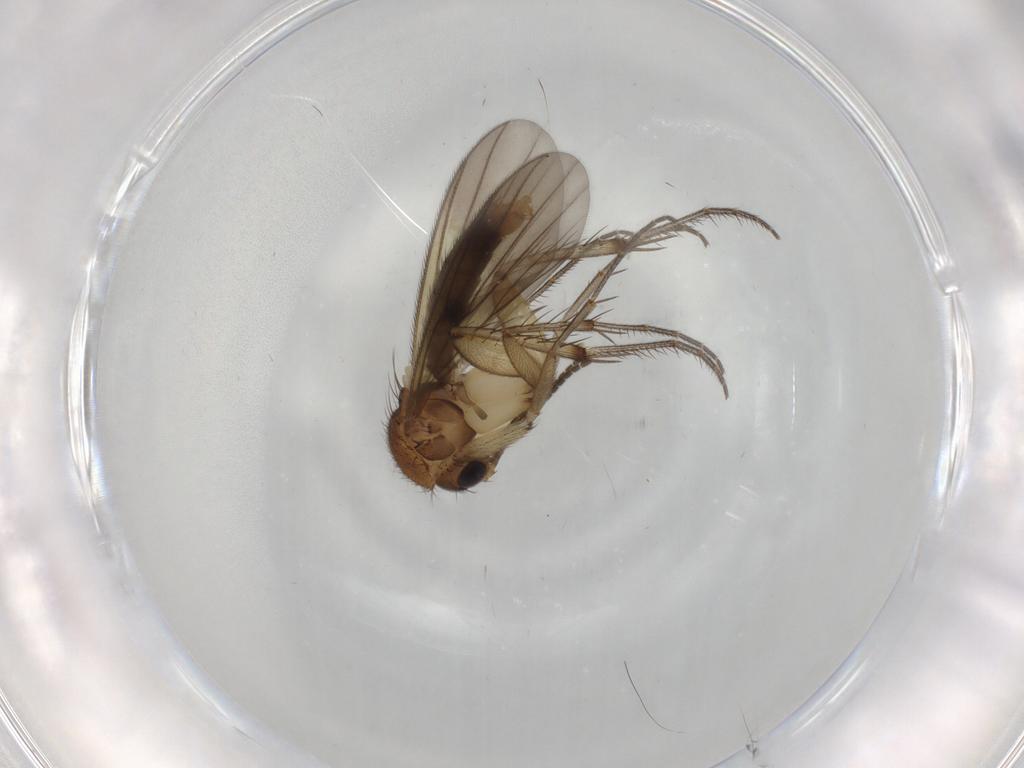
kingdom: Animalia
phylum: Arthropoda
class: Insecta
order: Diptera
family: Chironomidae
